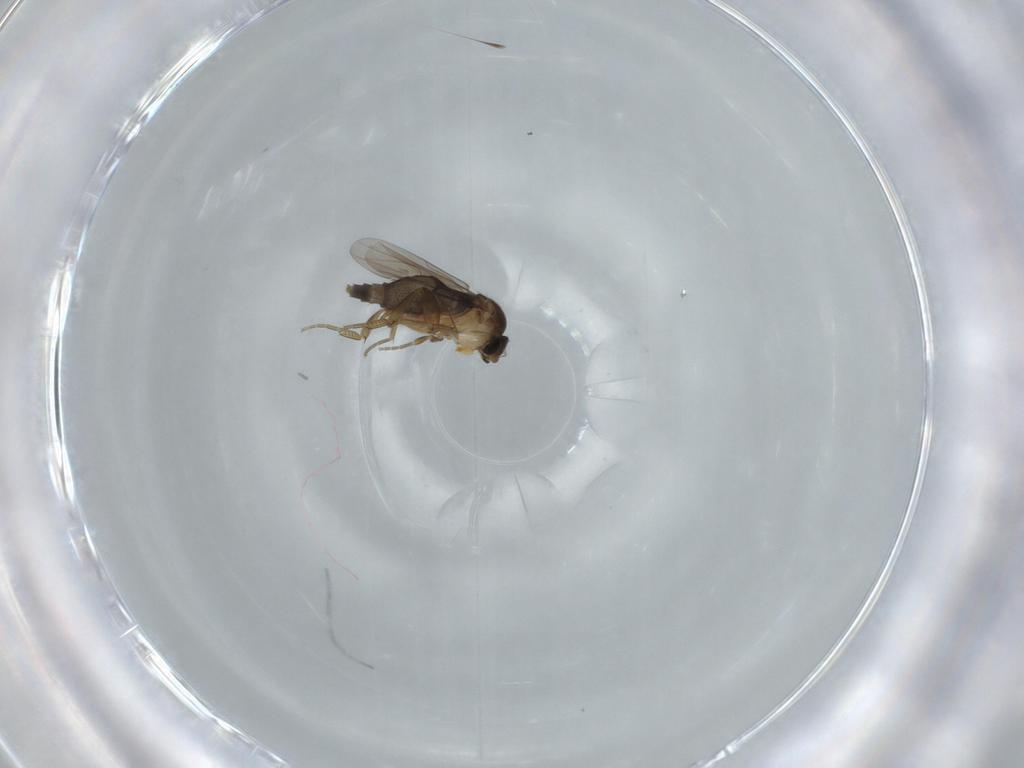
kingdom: Animalia
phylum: Arthropoda
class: Insecta
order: Diptera
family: Phoridae
